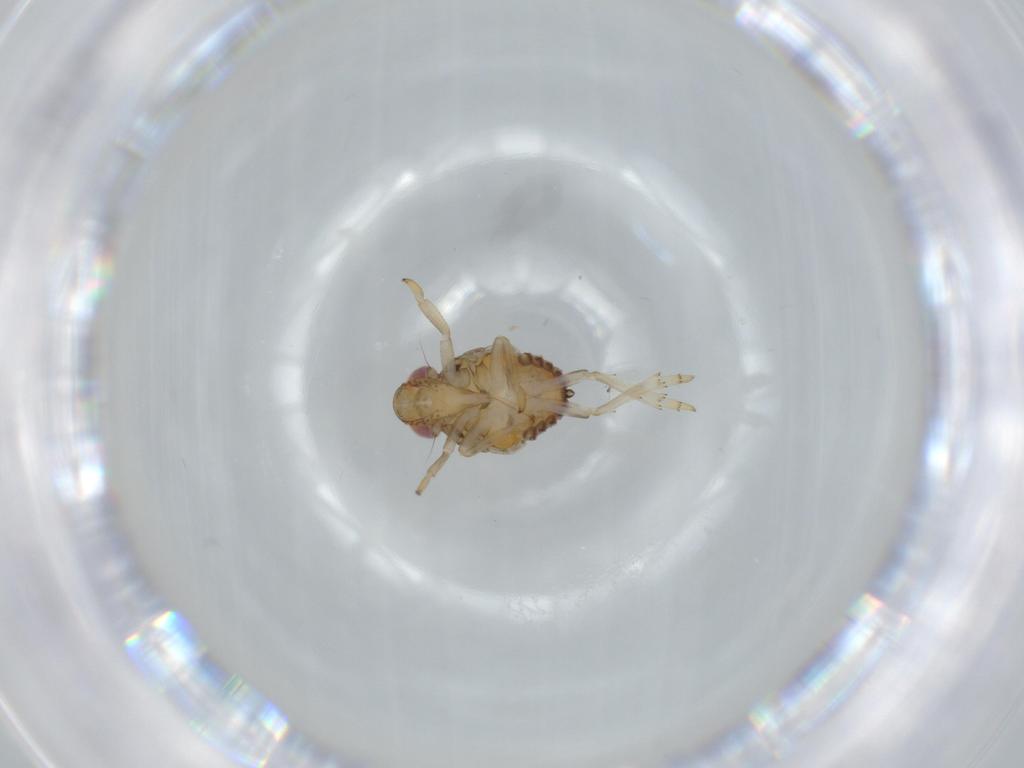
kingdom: Animalia
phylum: Arthropoda
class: Insecta
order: Hemiptera
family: Issidae
